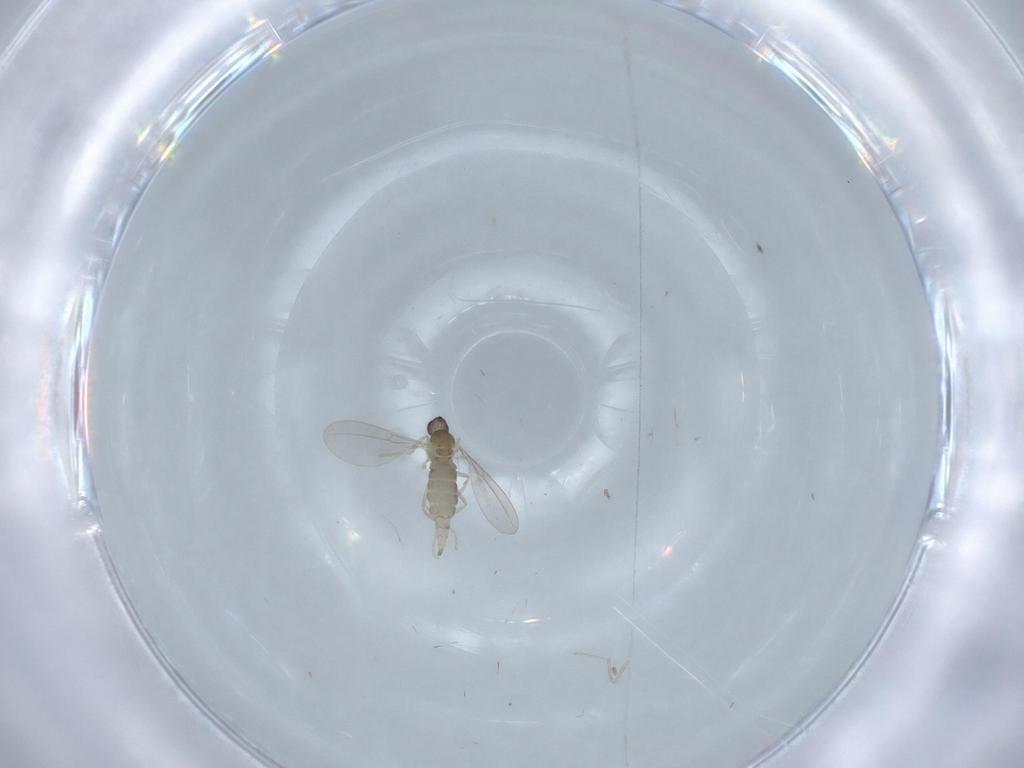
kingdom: Animalia
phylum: Arthropoda
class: Insecta
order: Diptera
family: Cecidomyiidae
